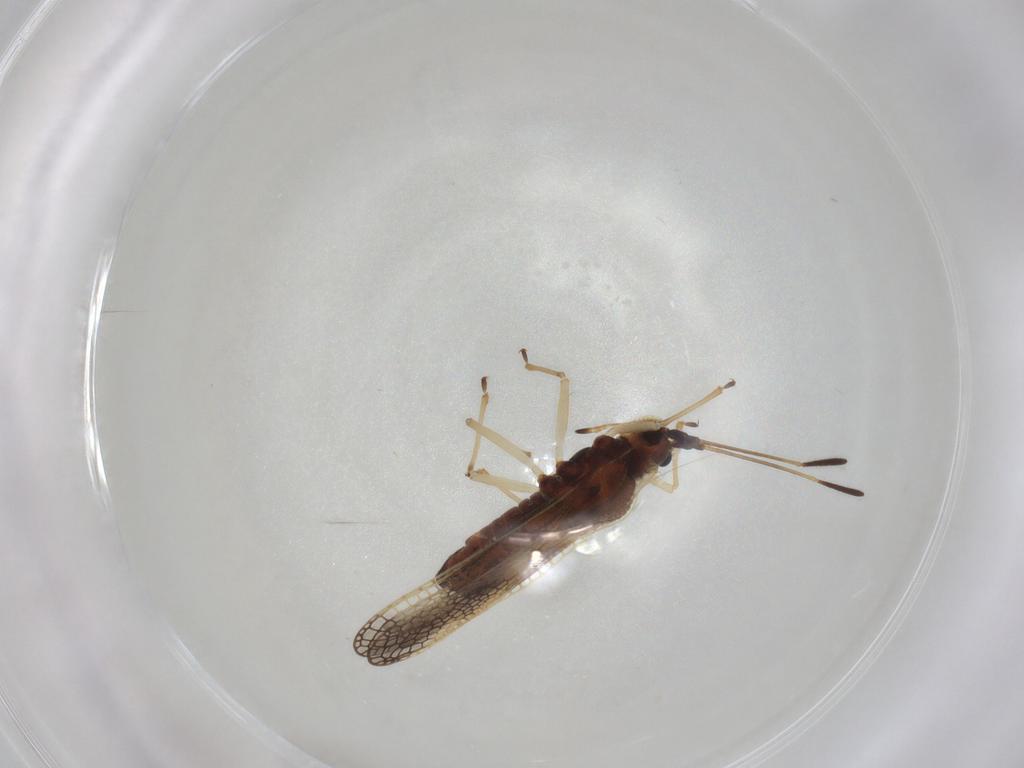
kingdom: Animalia
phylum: Arthropoda
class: Insecta
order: Hemiptera
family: Tingidae
